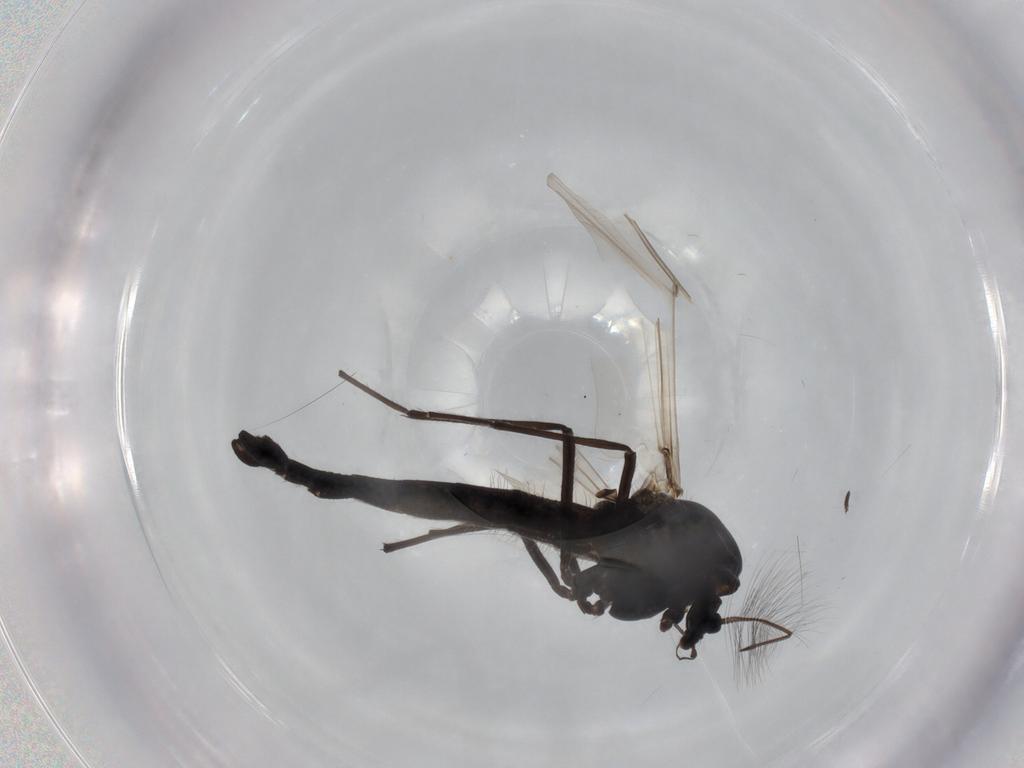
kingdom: Animalia
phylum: Arthropoda
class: Insecta
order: Diptera
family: Chironomidae
